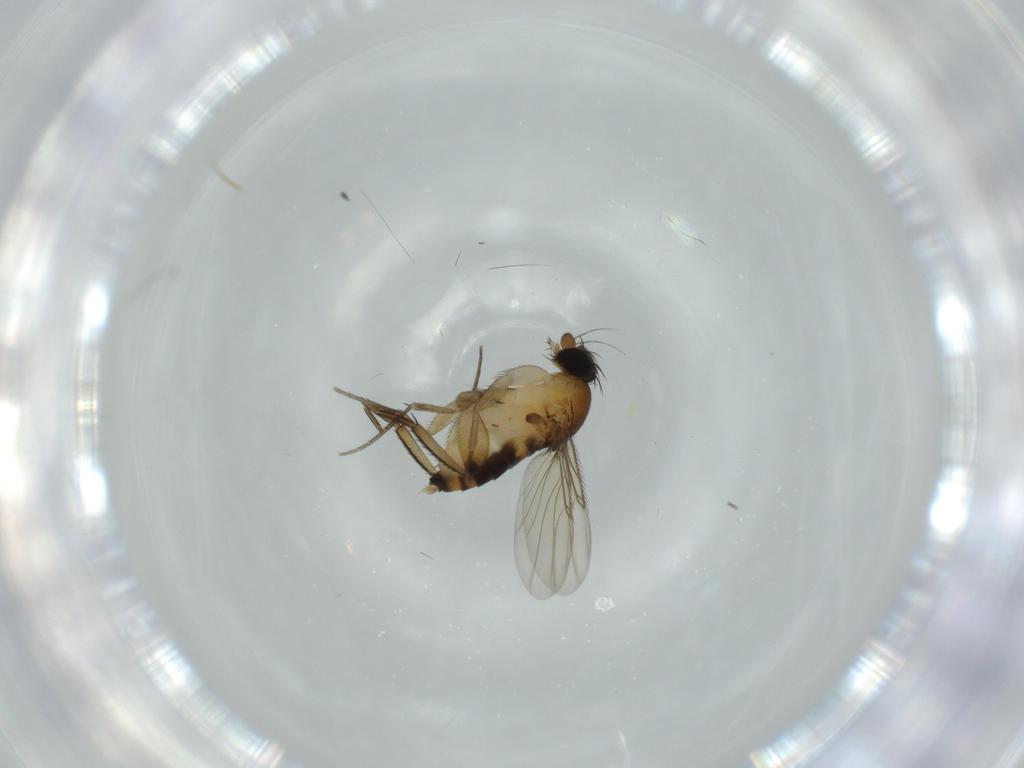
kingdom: Animalia
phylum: Arthropoda
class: Insecta
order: Diptera
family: Phoridae
